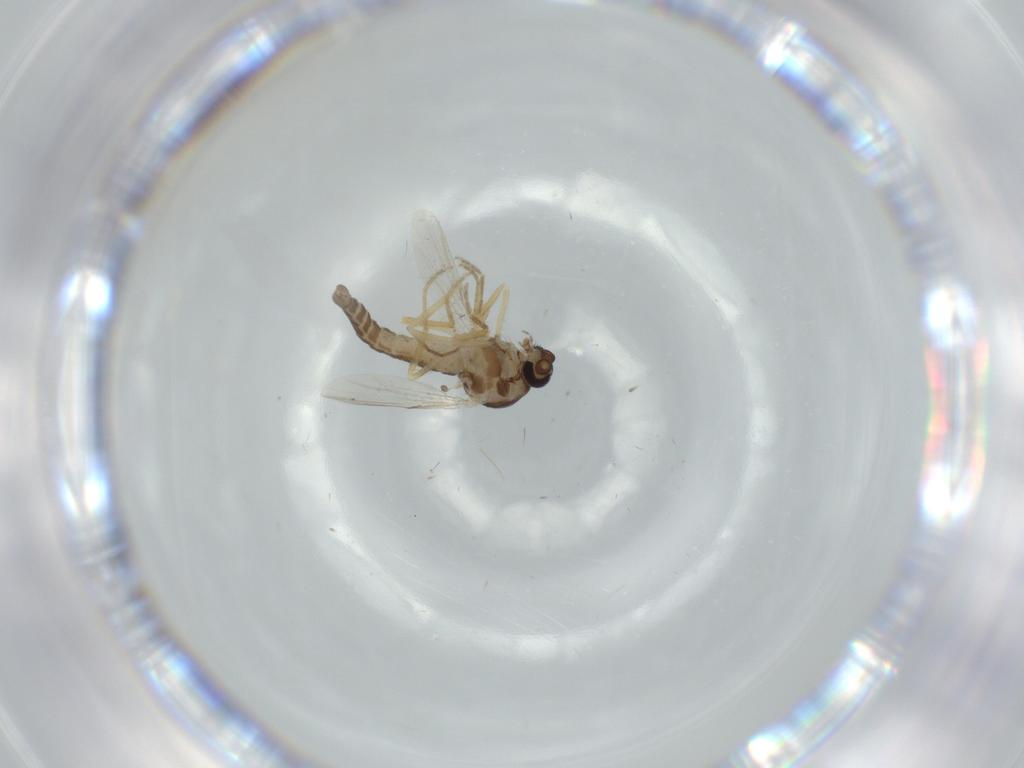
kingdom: Animalia
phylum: Arthropoda
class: Insecta
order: Diptera
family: Ceratopogonidae
